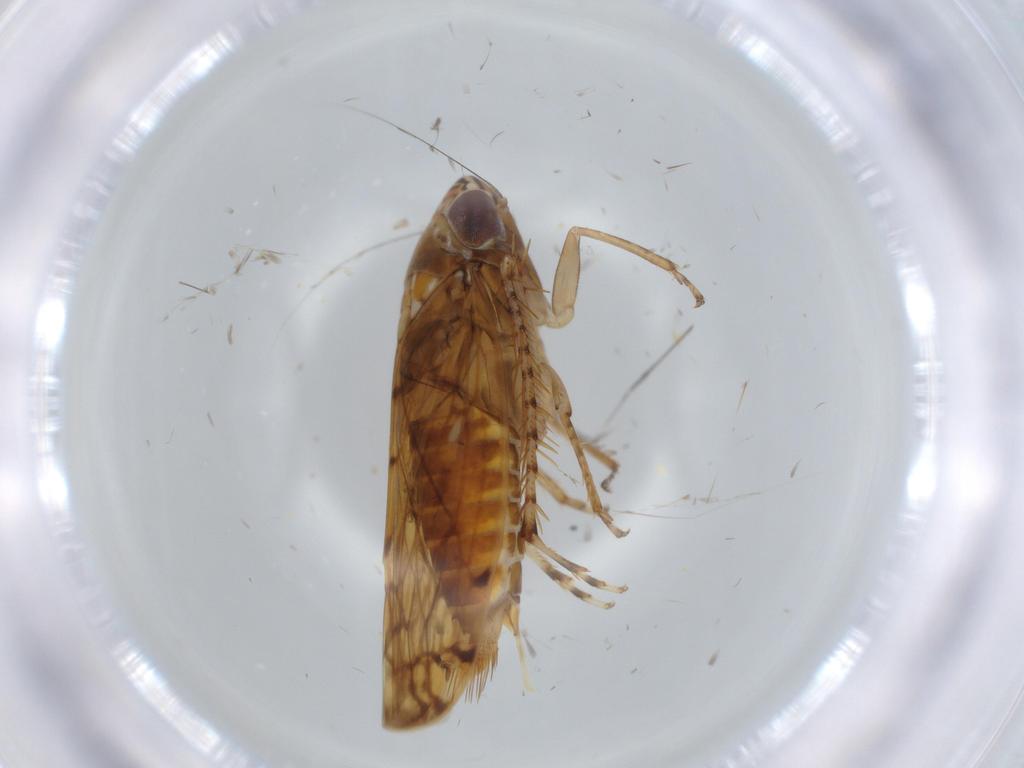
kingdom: Animalia
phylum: Arthropoda
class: Insecta
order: Hemiptera
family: Cicadellidae
